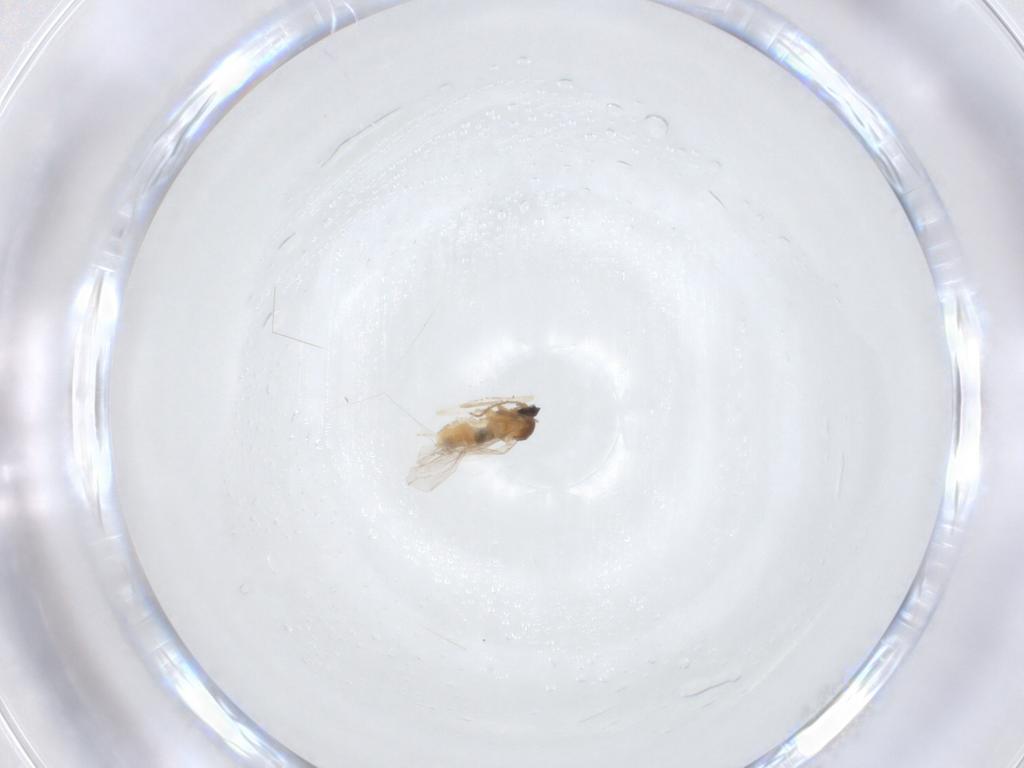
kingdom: Animalia
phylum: Arthropoda
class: Insecta
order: Diptera
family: Cecidomyiidae
